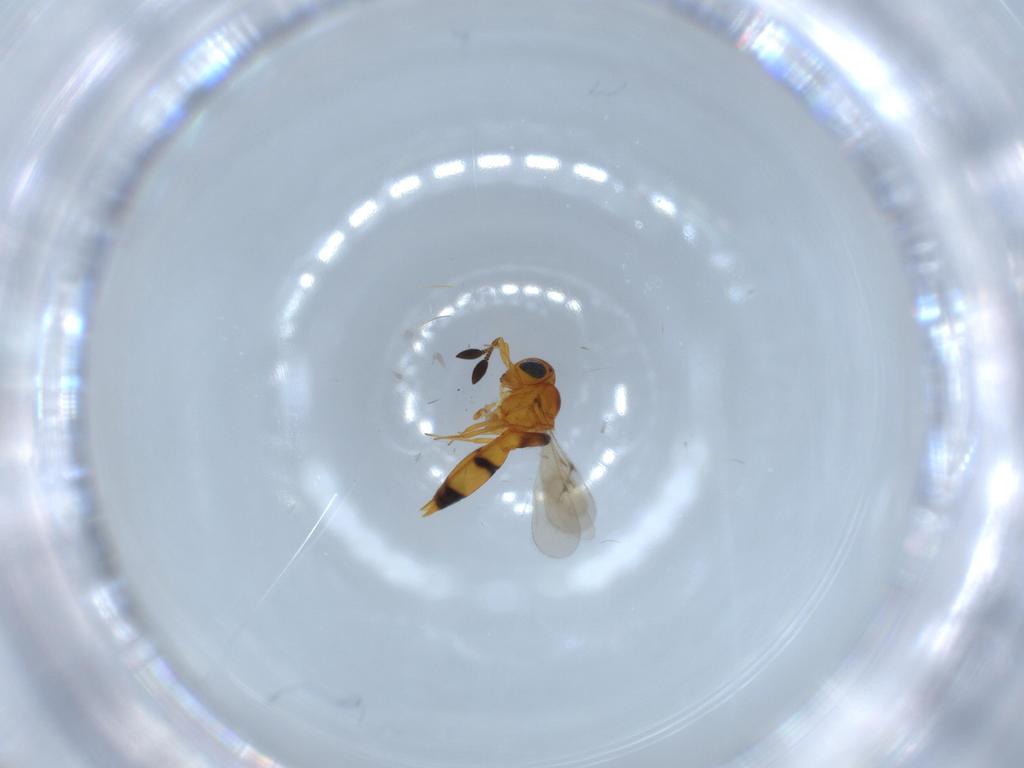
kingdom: Animalia
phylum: Arthropoda
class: Insecta
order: Hymenoptera
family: Scelionidae
